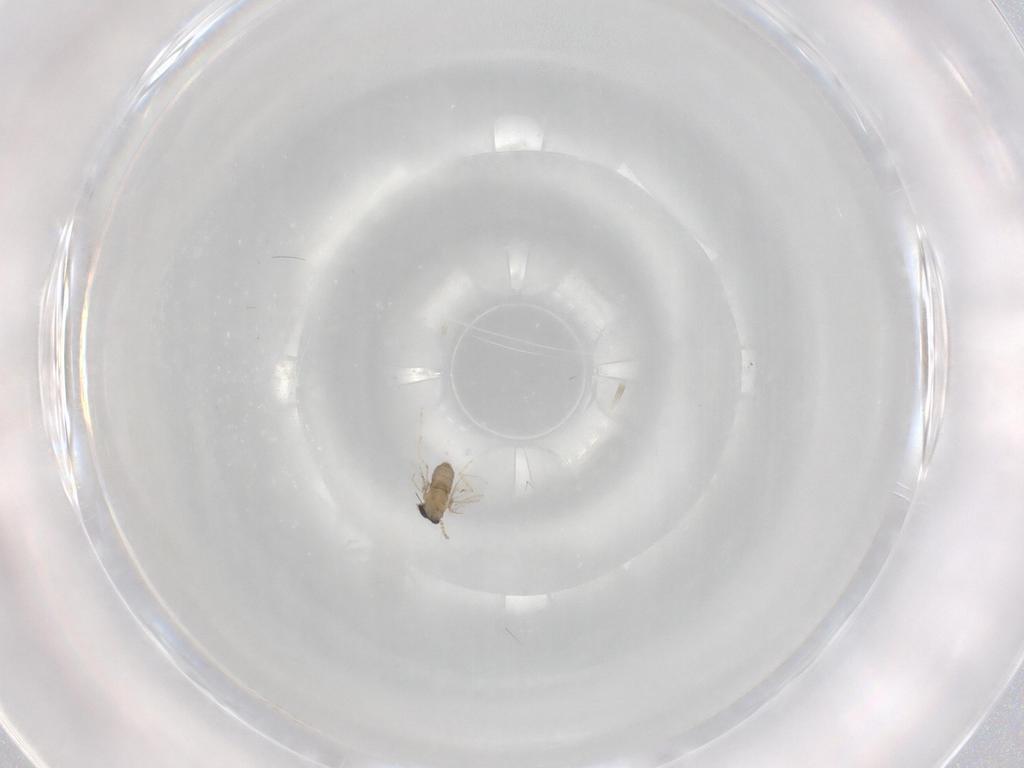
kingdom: Animalia
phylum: Arthropoda
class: Insecta
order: Diptera
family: Cecidomyiidae
